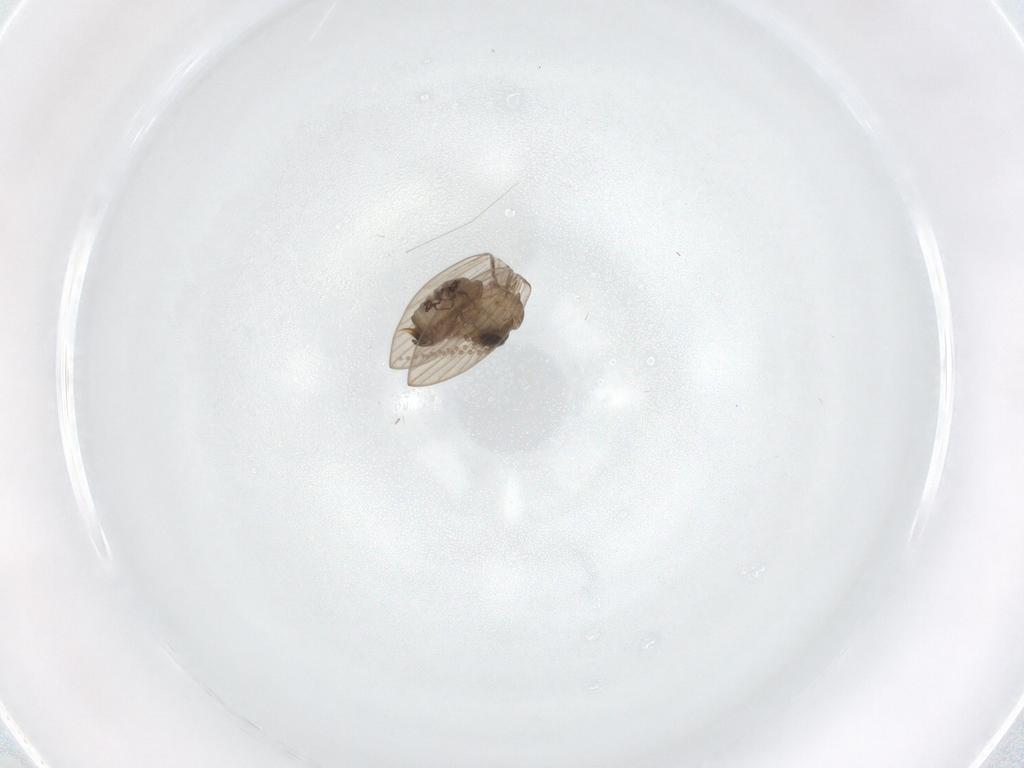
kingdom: Animalia
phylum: Arthropoda
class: Insecta
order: Diptera
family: Psychodidae
